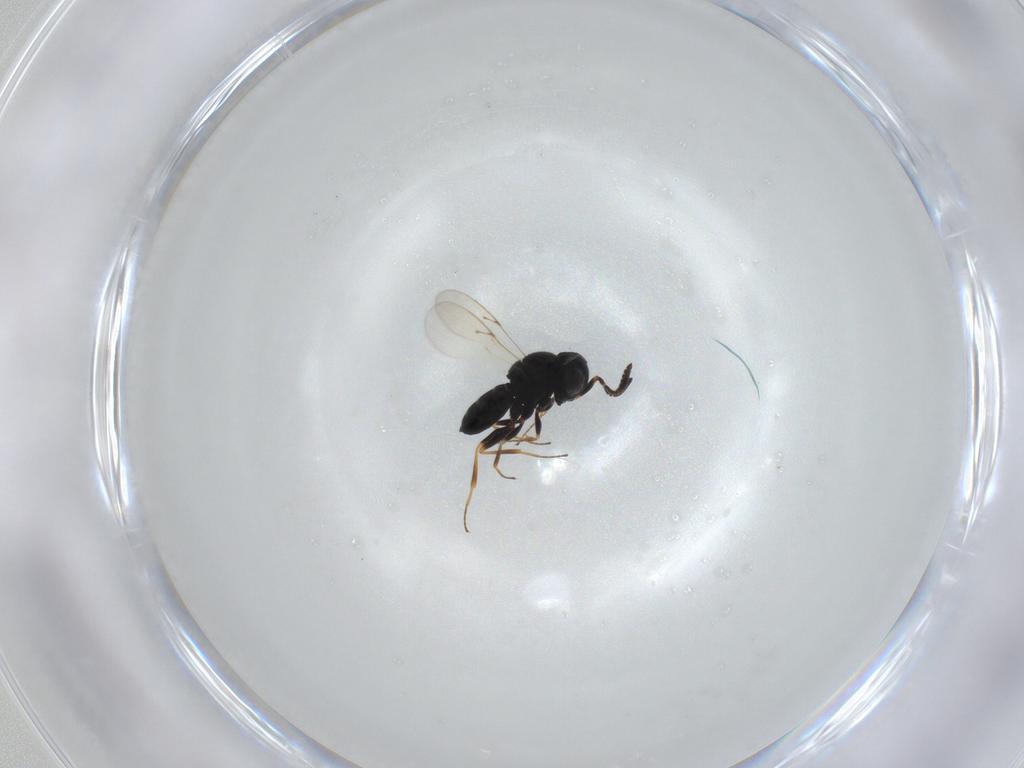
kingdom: Animalia
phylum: Arthropoda
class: Insecta
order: Hymenoptera
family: Scelionidae
